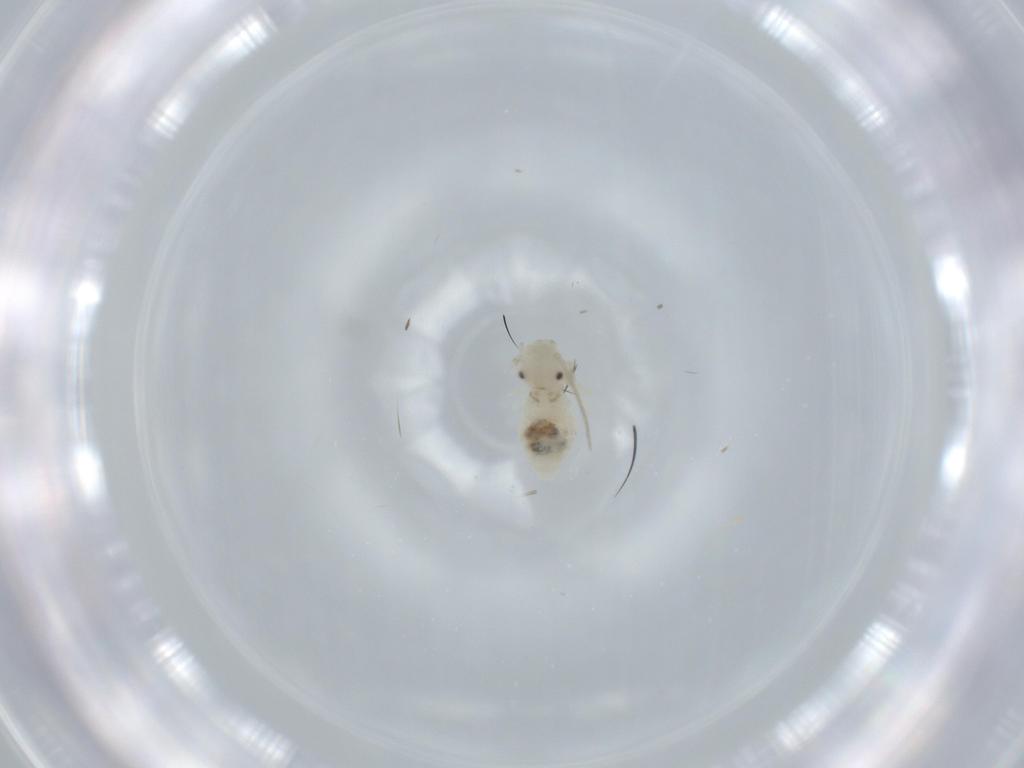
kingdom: Animalia
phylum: Arthropoda
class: Insecta
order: Psocodea
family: Caeciliusidae
